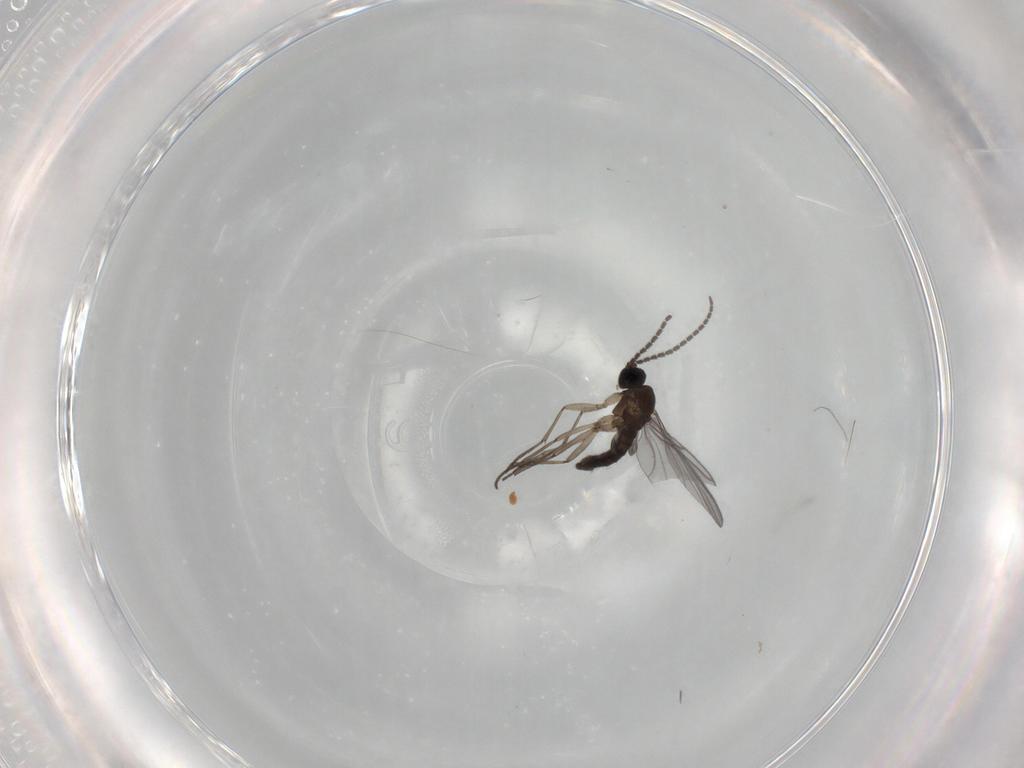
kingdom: Animalia
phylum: Arthropoda
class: Insecta
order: Diptera
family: Sciaridae
